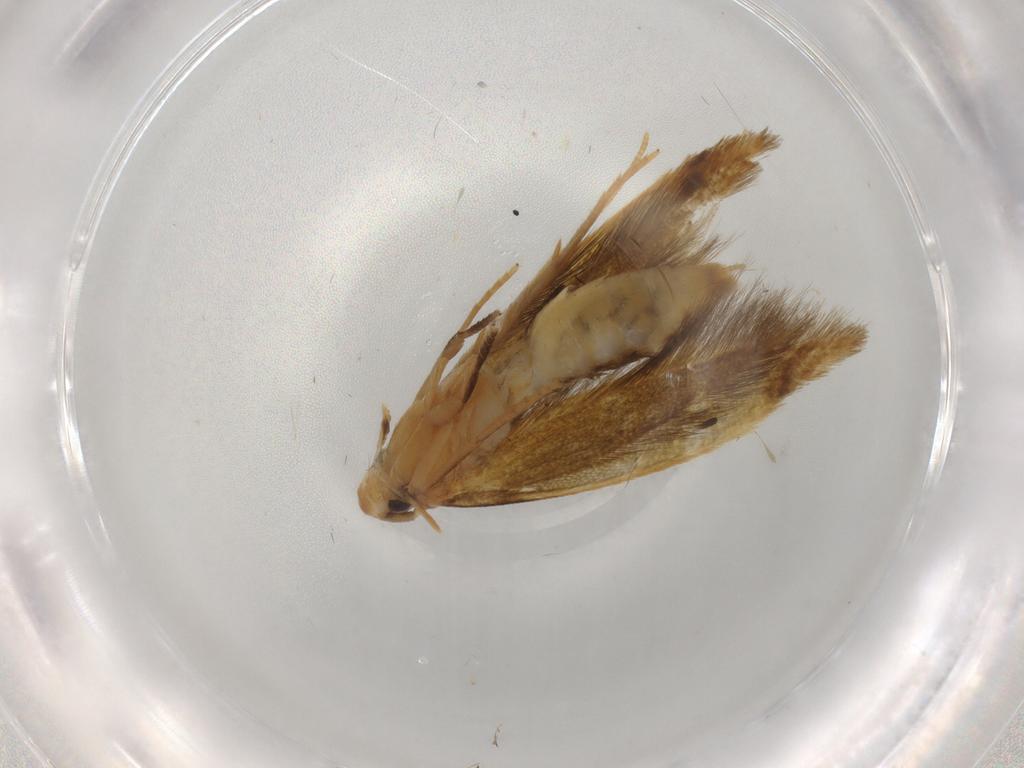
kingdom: Animalia
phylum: Arthropoda
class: Insecta
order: Lepidoptera
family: Tineidae
